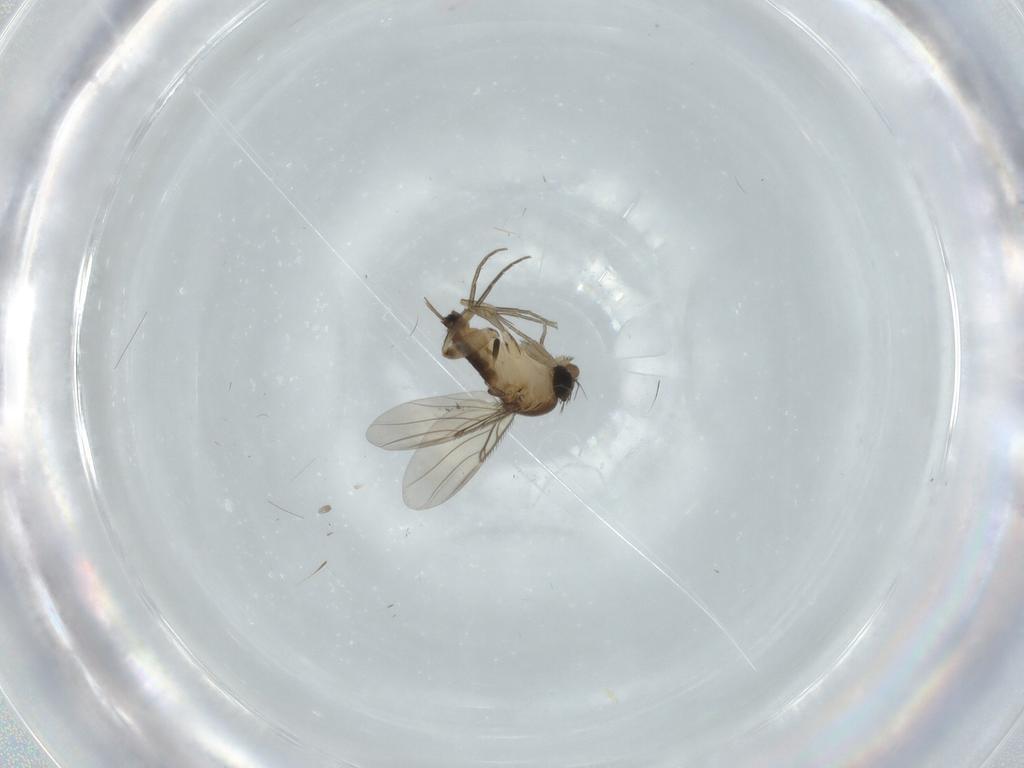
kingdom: Animalia
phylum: Arthropoda
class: Insecta
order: Diptera
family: Phoridae
